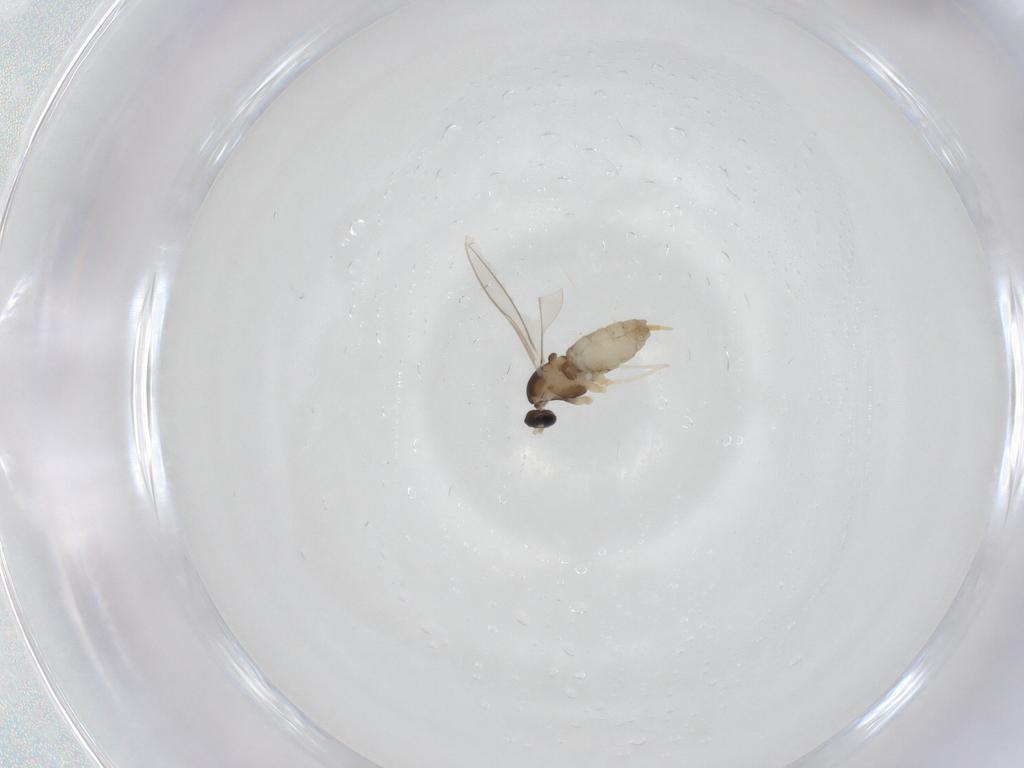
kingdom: Animalia
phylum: Arthropoda
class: Insecta
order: Diptera
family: Cecidomyiidae
